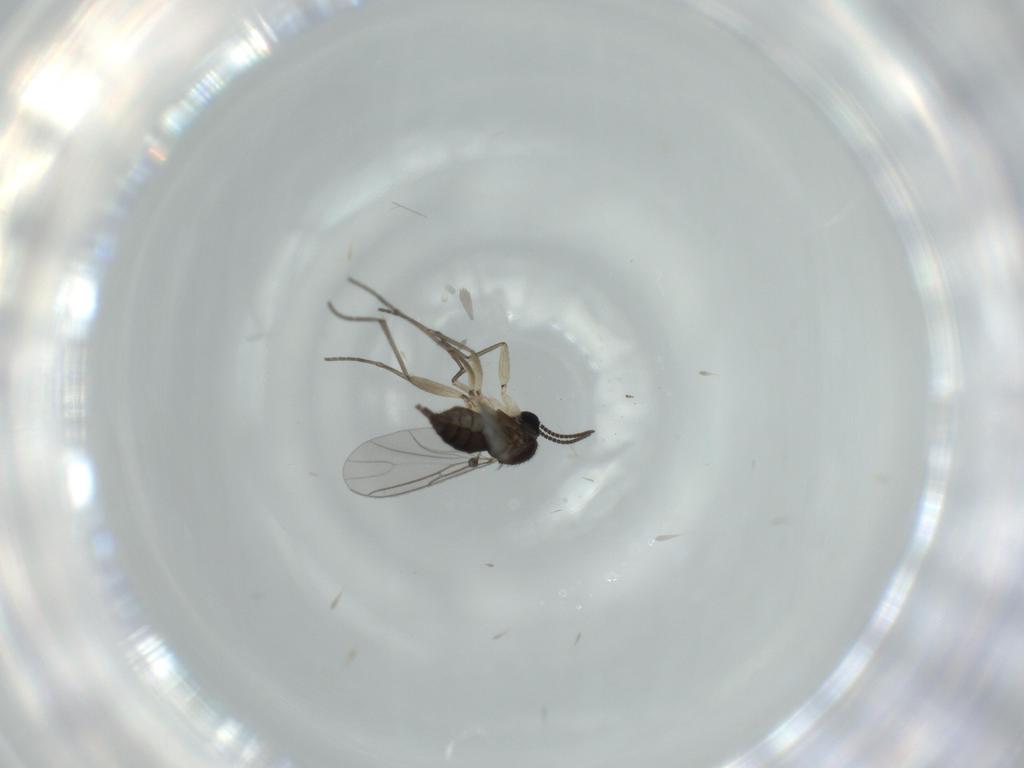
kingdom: Animalia
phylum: Arthropoda
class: Insecta
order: Diptera
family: Sciaridae
